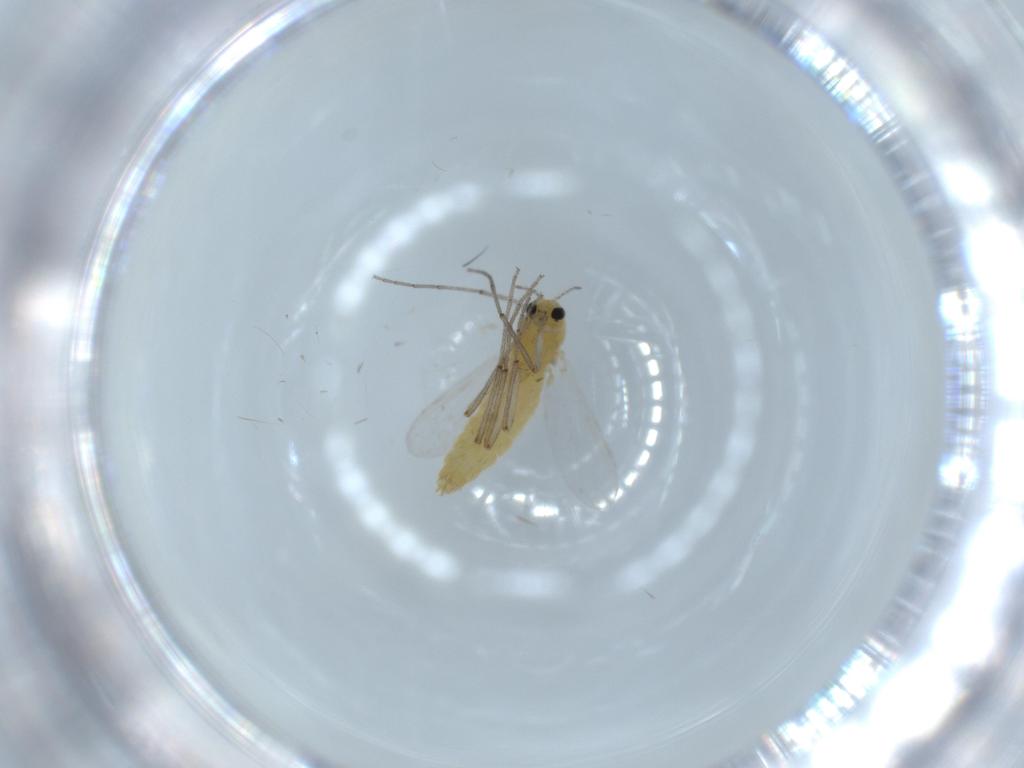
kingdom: Animalia
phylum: Arthropoda
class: Insecta
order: Diptera
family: Chironomidae
